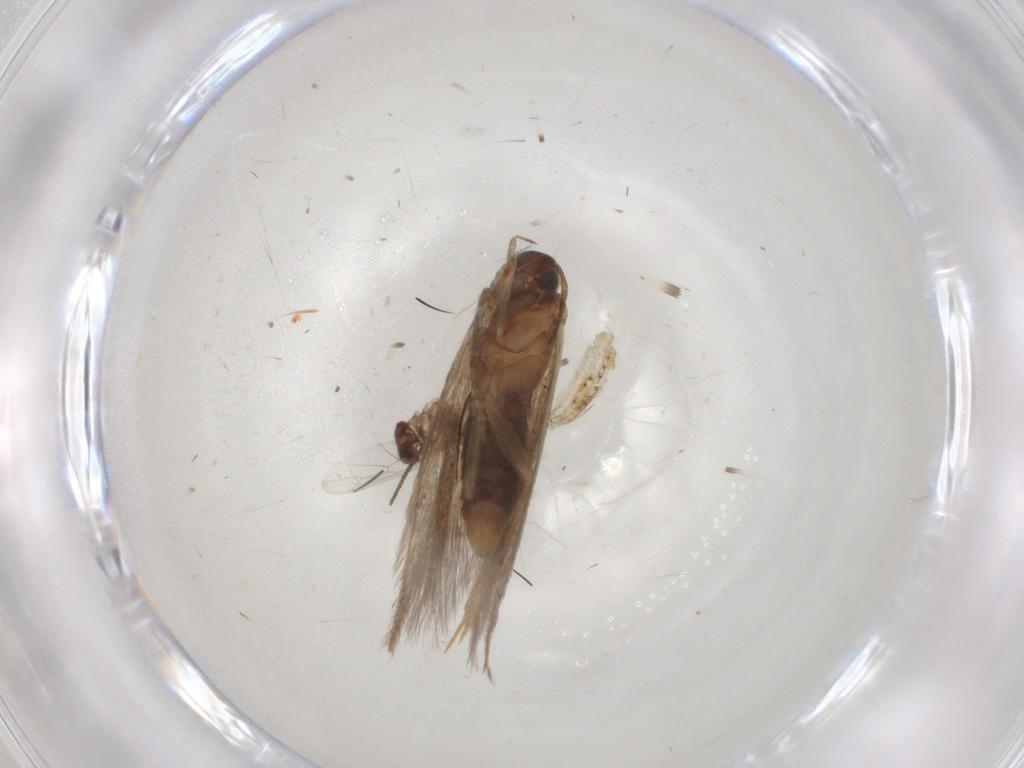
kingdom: Animalia
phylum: Arthropoda
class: Insecta
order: Lepidoptera
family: Gelechiidae
